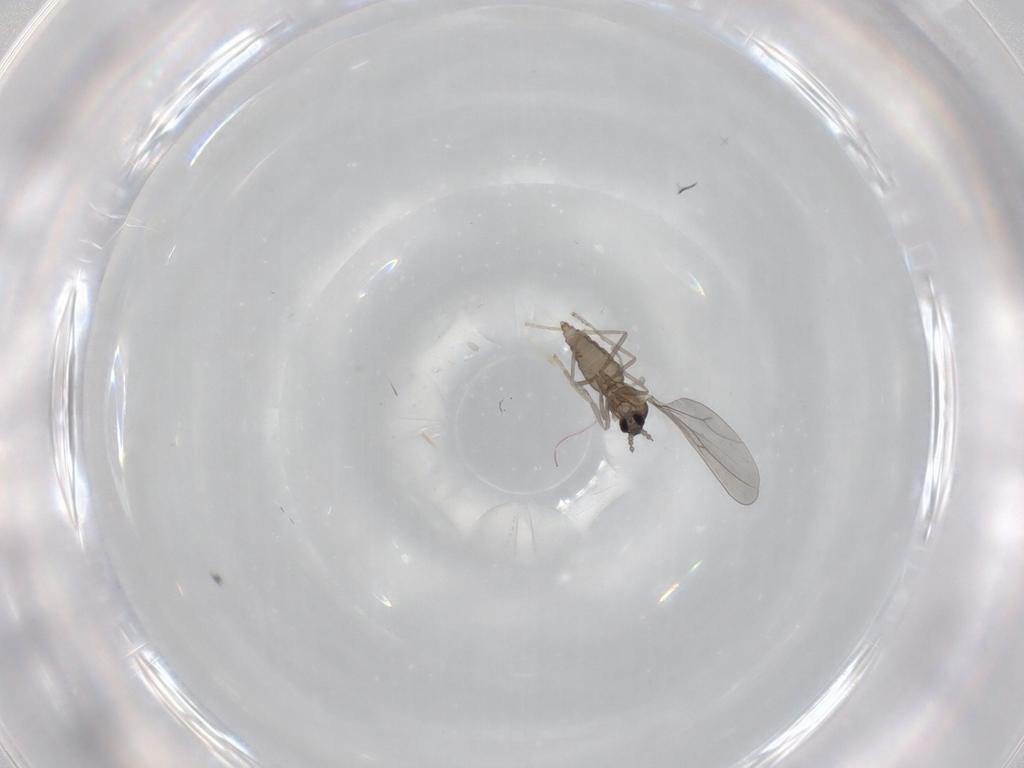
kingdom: Animalia
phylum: Arthropoda
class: Insecta
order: Diptera
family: Cecidomyiidae
